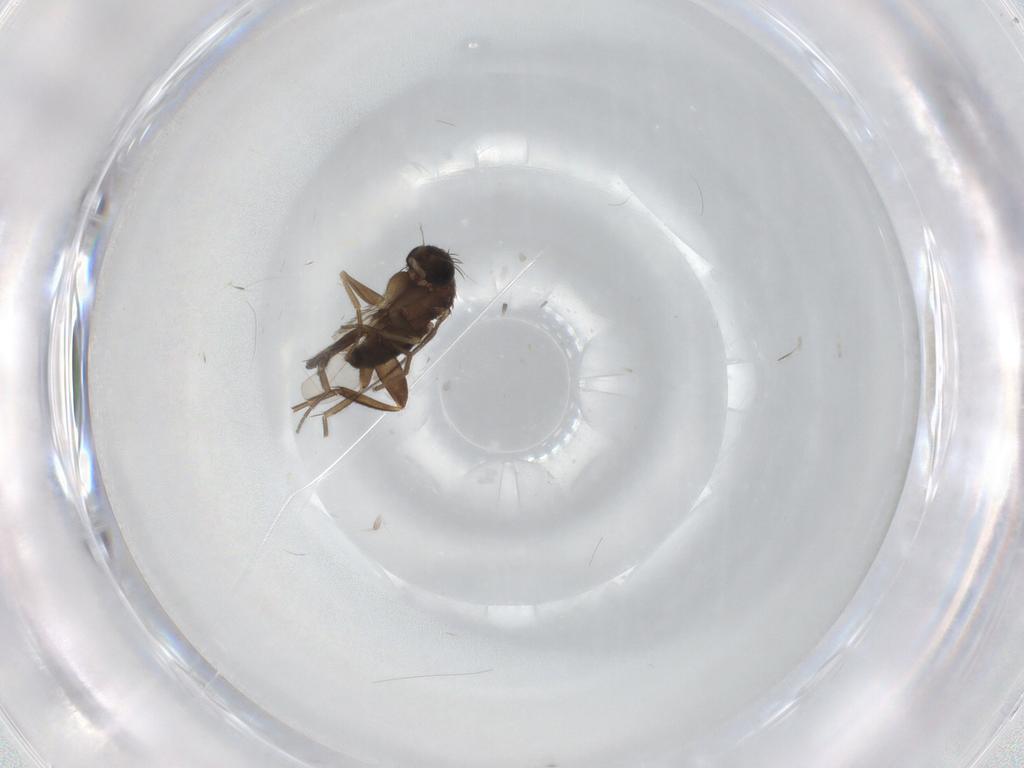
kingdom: Animalia
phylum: Arthropoda
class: Insecta
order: Diptera
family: Phoridae
